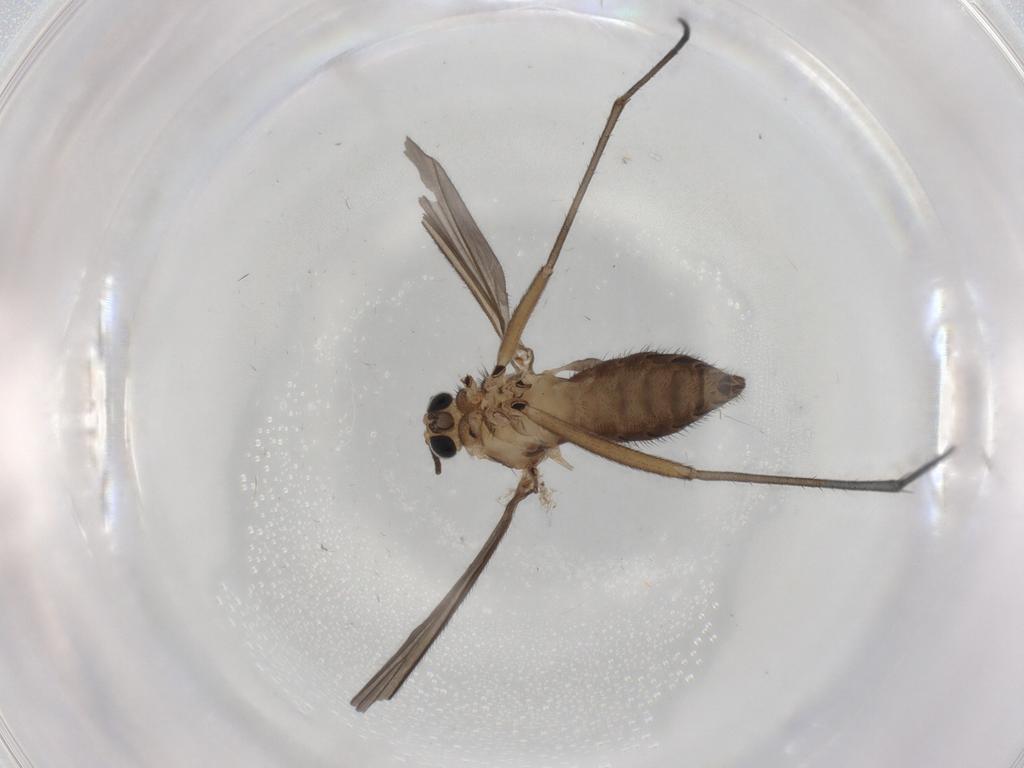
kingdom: Animalia
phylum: Arthropoda
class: Insecta
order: Diptera
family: Sciaridae
